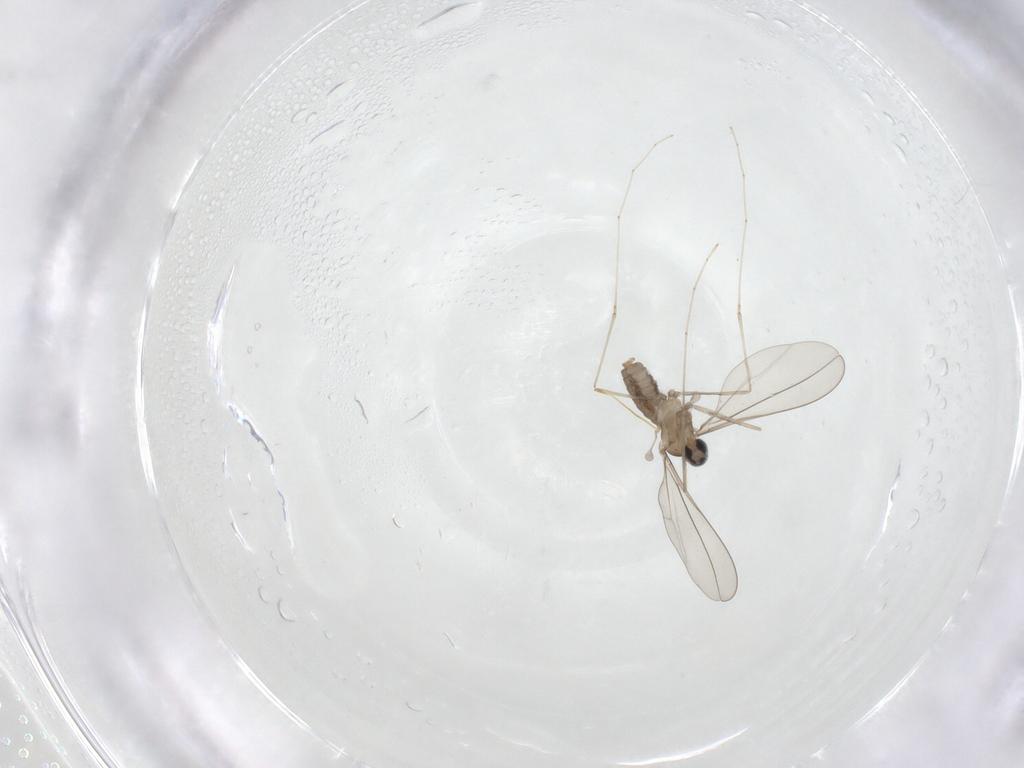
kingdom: Animalia
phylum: Arthropoda
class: Insecta
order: Diptera
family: Cecidomyiidae
